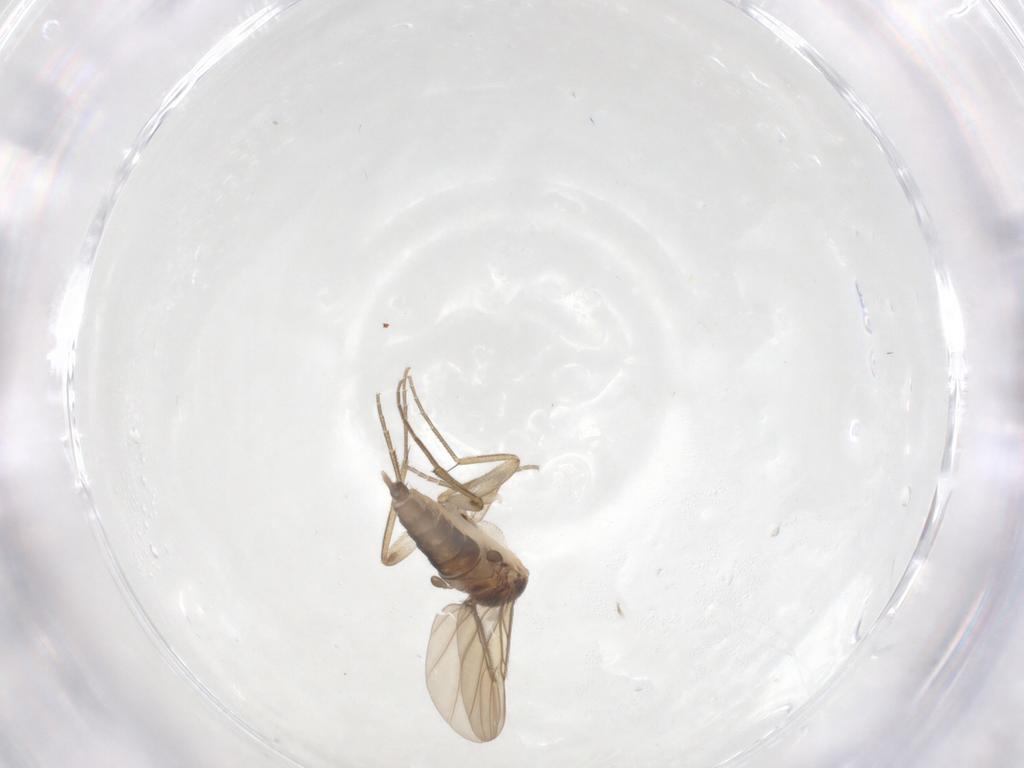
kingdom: Animalia
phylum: Arthropoda
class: Insecta
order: Diptera
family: Phoridae
